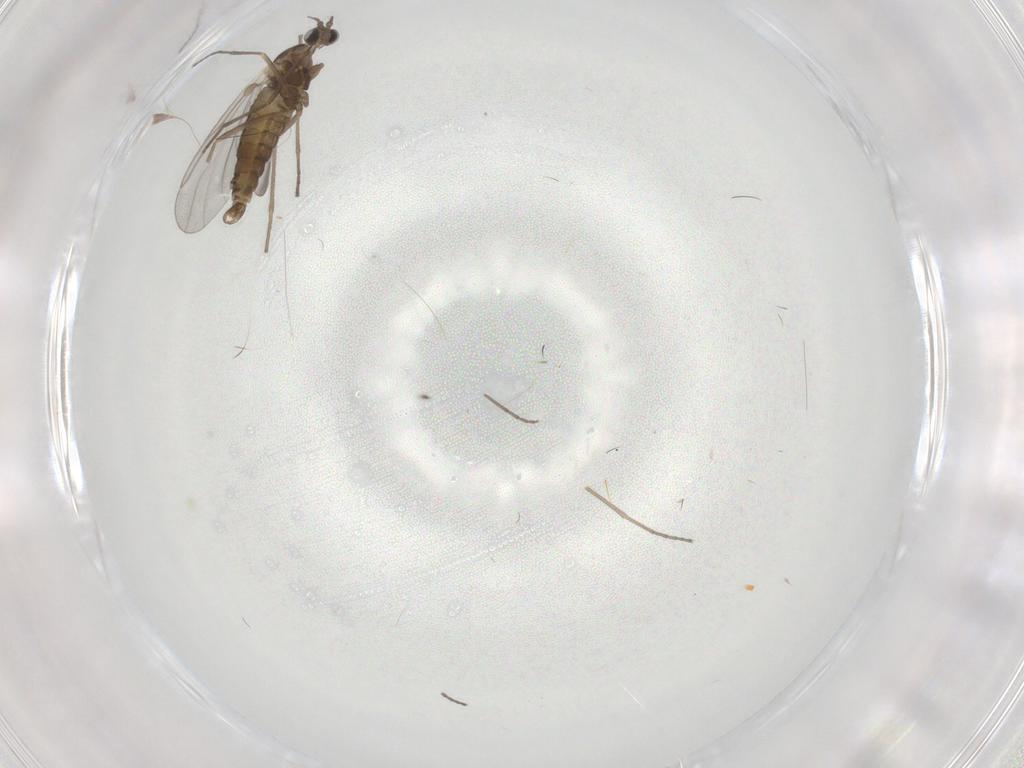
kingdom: Animalia
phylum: Arthropoda
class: Insecta
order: Diptera
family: Cecidomyiidae
